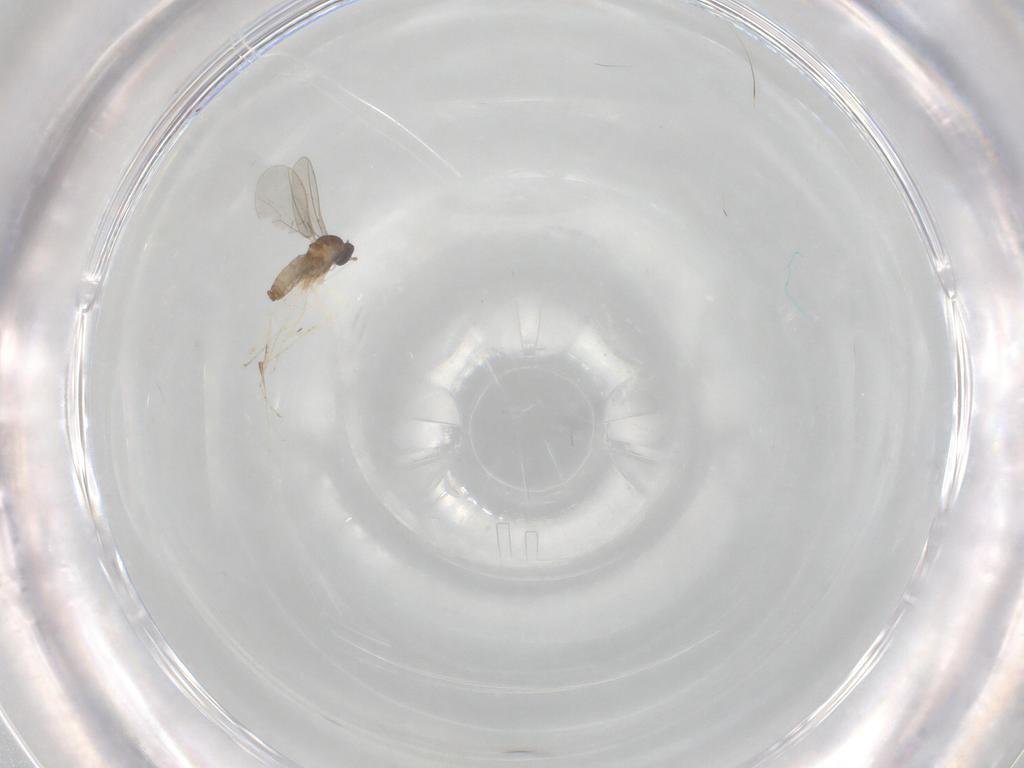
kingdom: Animalia
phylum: Arthropoda
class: Insecta
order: Diptera
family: Cecidomyiidae
